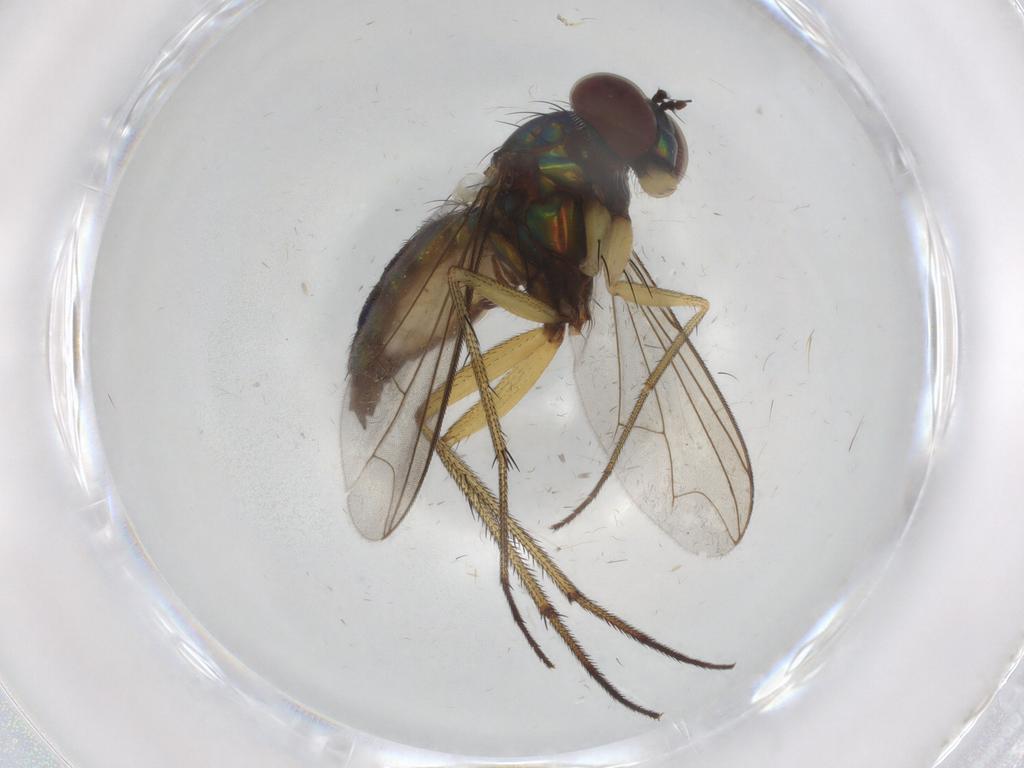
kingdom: Animalia
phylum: Arthropoda
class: Insecta
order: Diptera
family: Dolichopodidae
